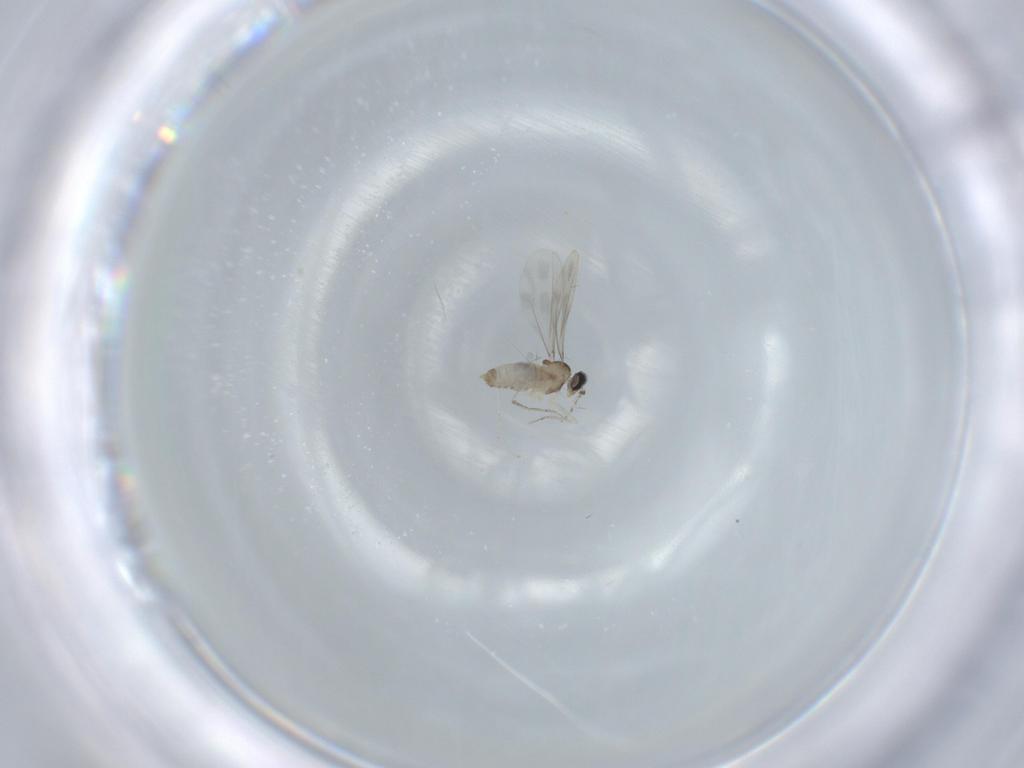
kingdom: Animalia
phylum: Arthropoda
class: Insecta
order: Diptera
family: Cecidomyiidae
